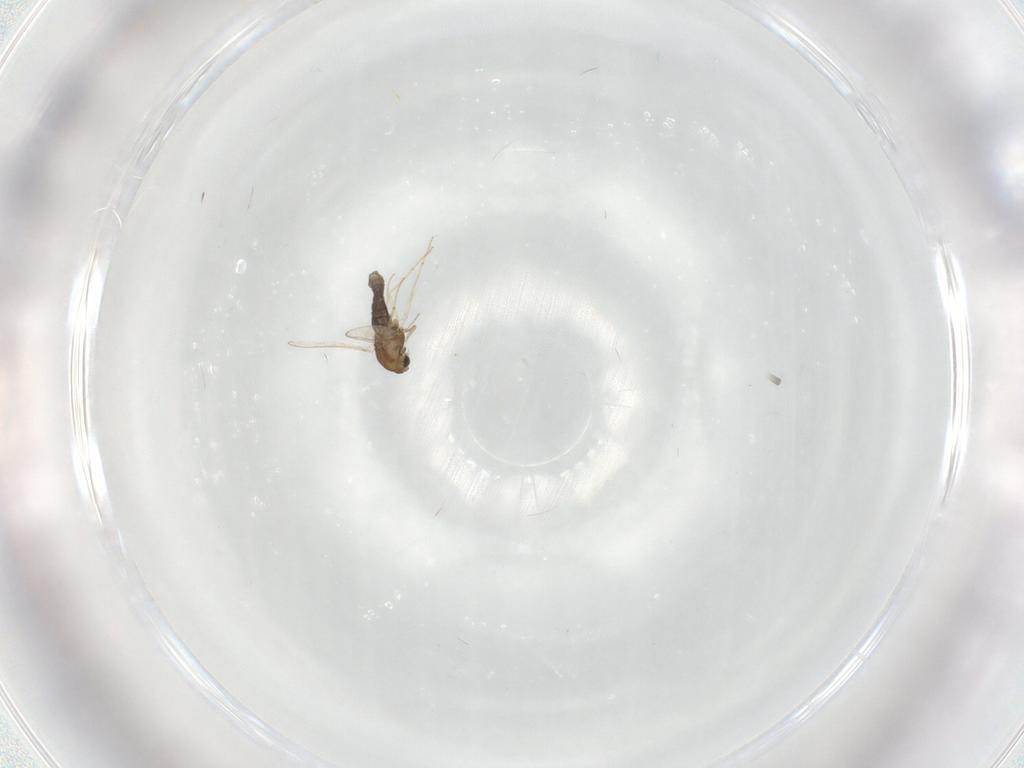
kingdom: Animalia
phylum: Arthropoda
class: Insecta
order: Diptera
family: Chironomidae
